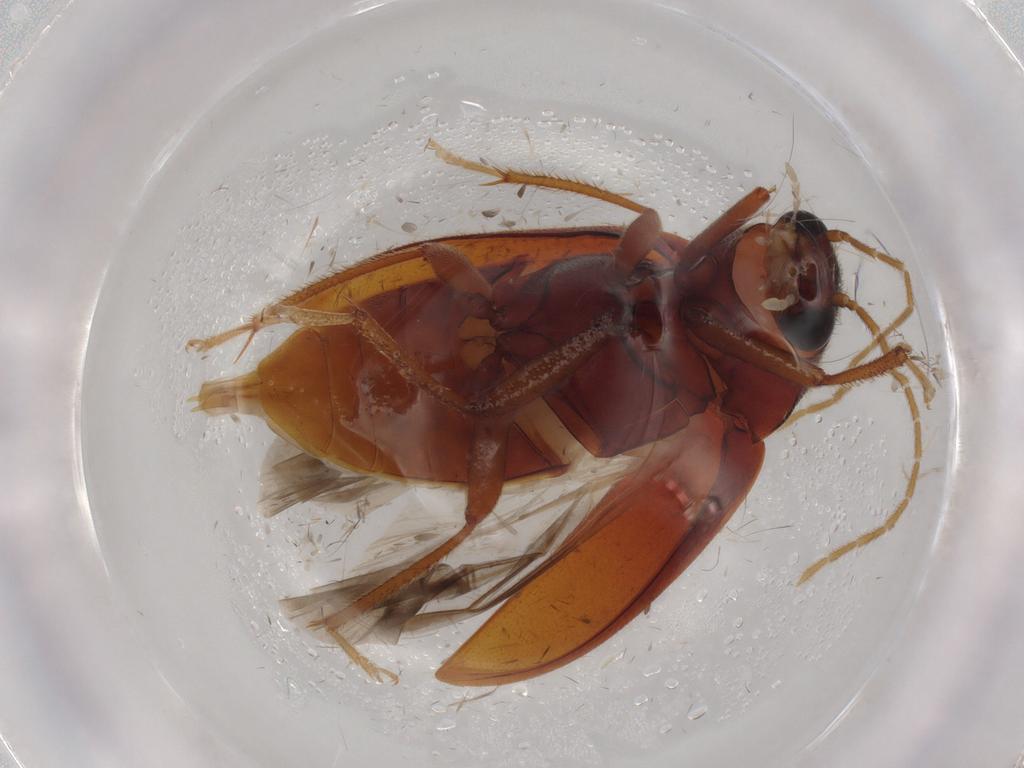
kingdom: Animalia
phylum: Arthropoda
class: Insecta
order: Coleoptera
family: Ptilodactylidae
